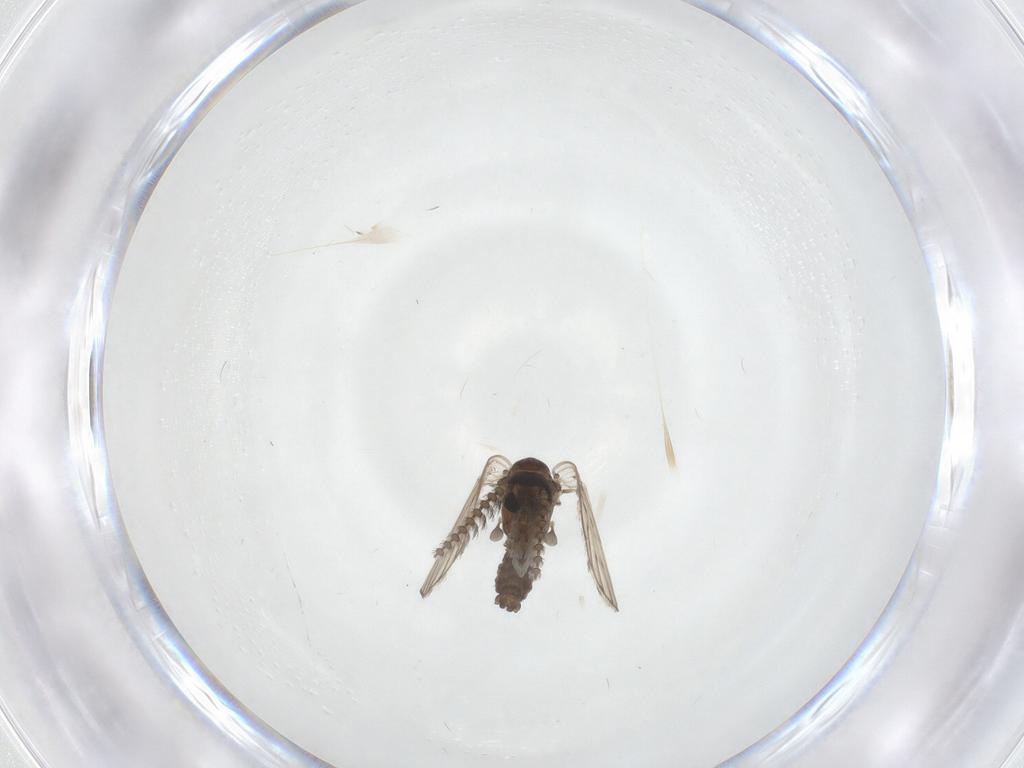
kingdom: Animalia
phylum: Arthropoda
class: Insecta
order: Diptera
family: Psychodidae
